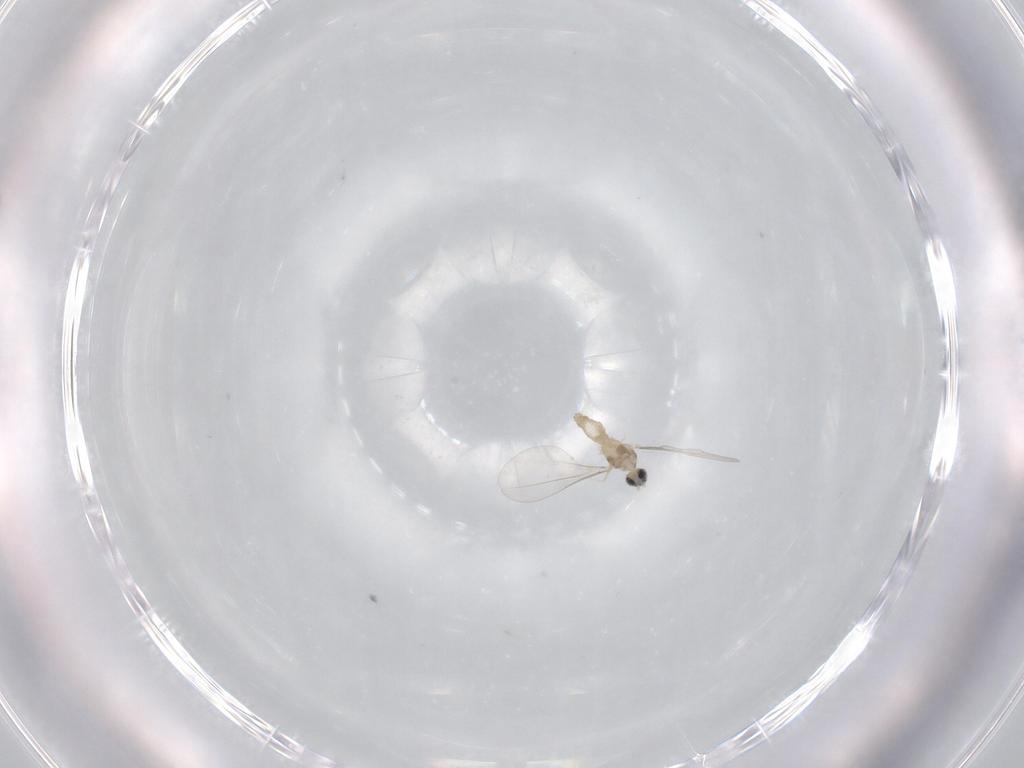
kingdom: Animalia
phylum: Arthropoda
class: Insecta
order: Diptera
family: Cecidomyiidae
